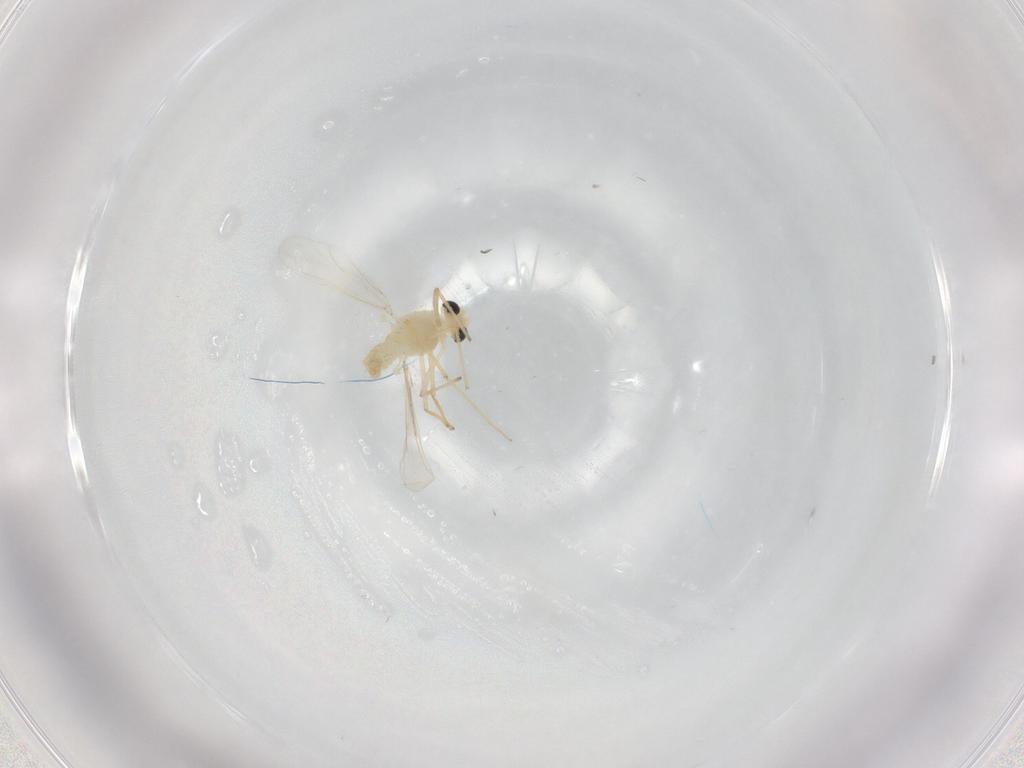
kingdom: Animalia
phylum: Arthropoda
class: Insecta
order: Diptera
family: Chironomidae
